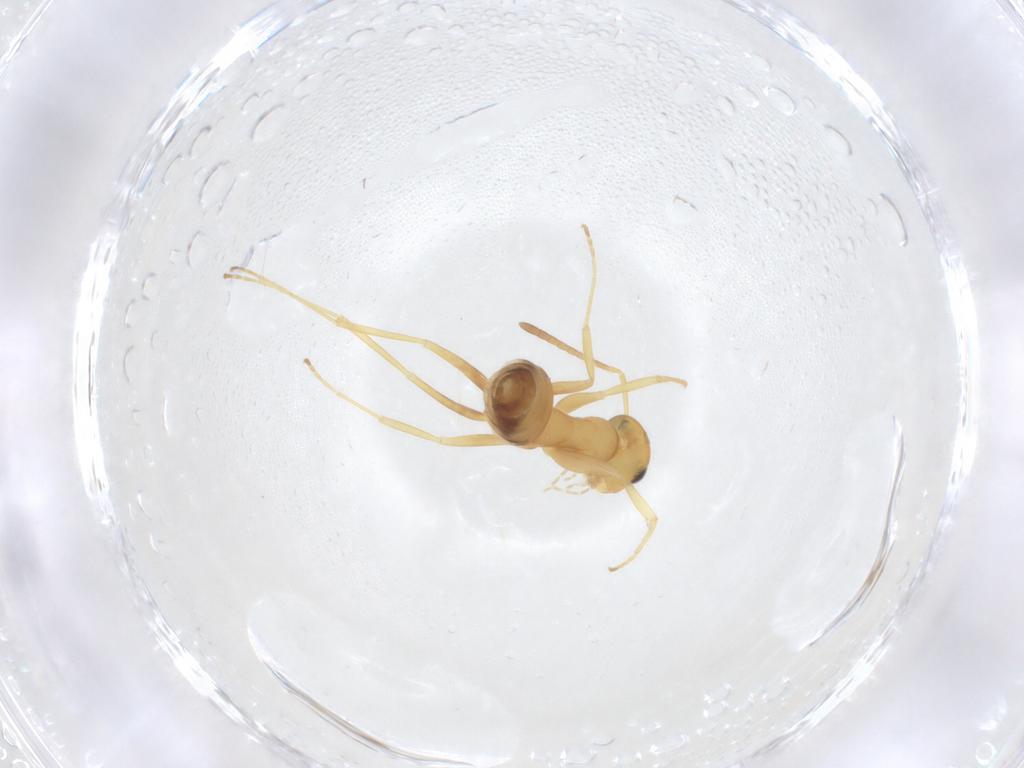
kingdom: Animalia
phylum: Arthropoda
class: Insecta
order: Hymenoptera
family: Formicidae
